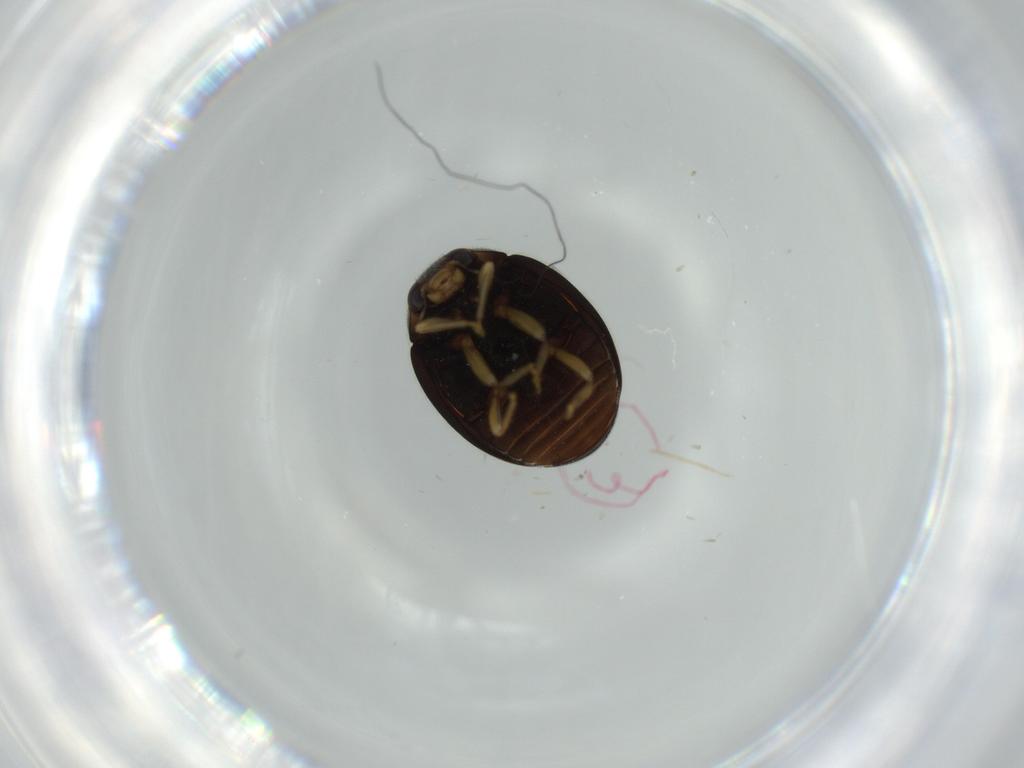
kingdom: Animalia
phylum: Arthropoda
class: Insecta
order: Coleoptera
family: Coccinellidae
